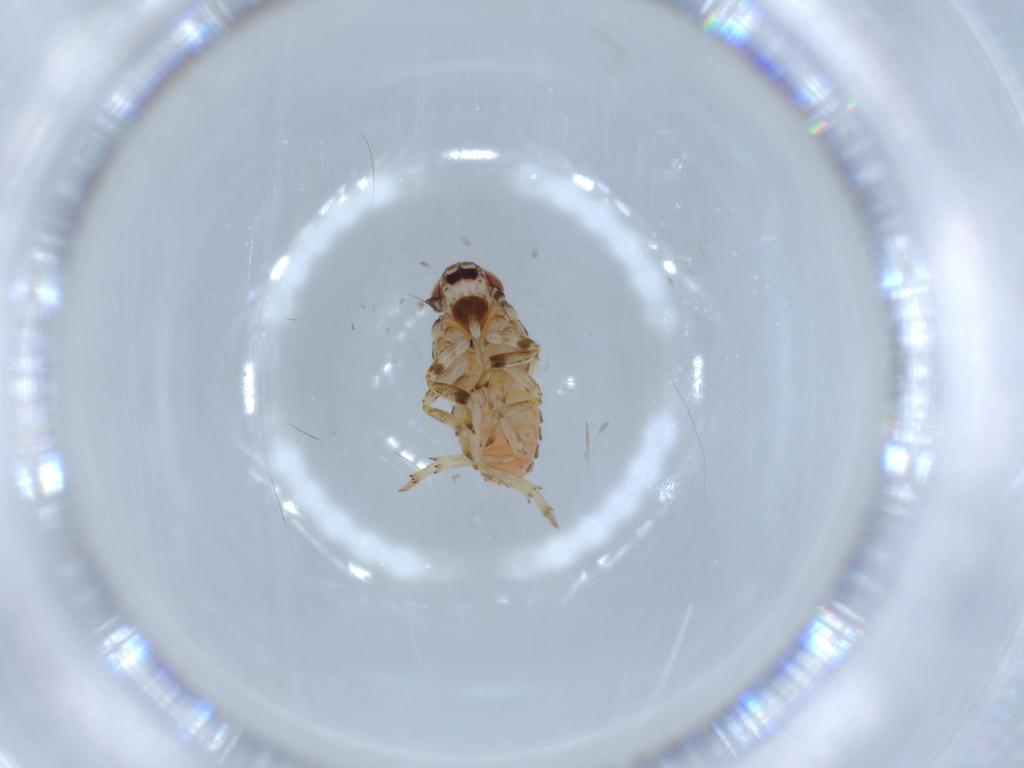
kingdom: Animalia
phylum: Arthropoda
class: Insecta
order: Hemiptera
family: Issidae
